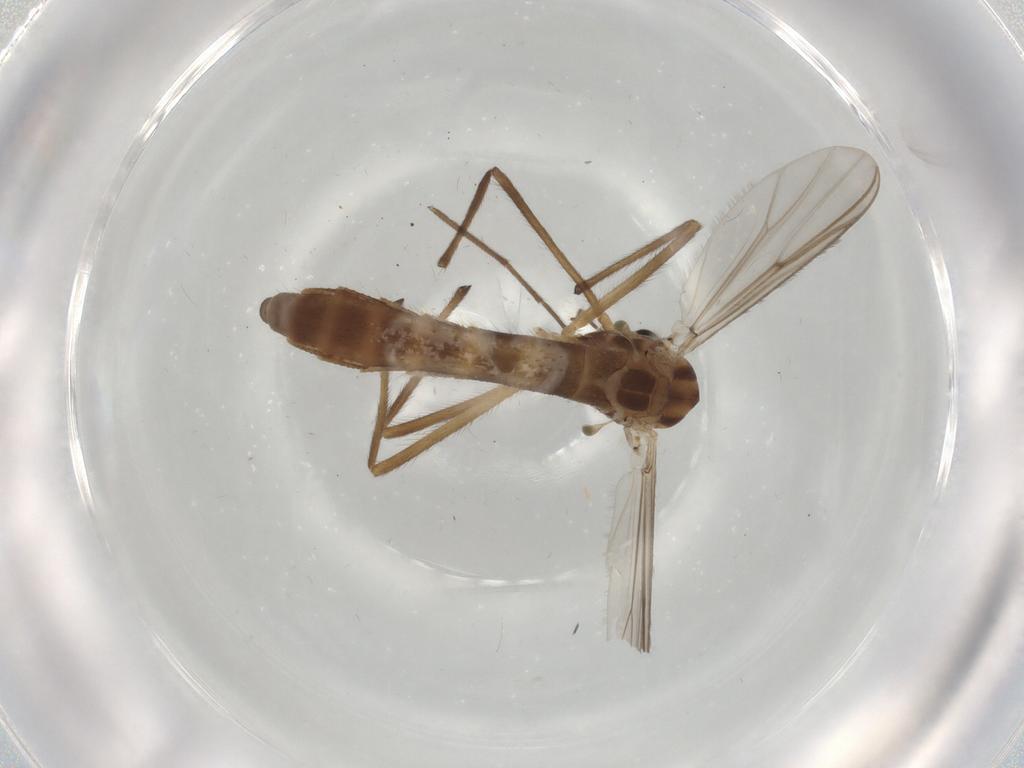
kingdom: Animalia
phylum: Arthropoda
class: Insecta
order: Diptera
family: Chironomidae
